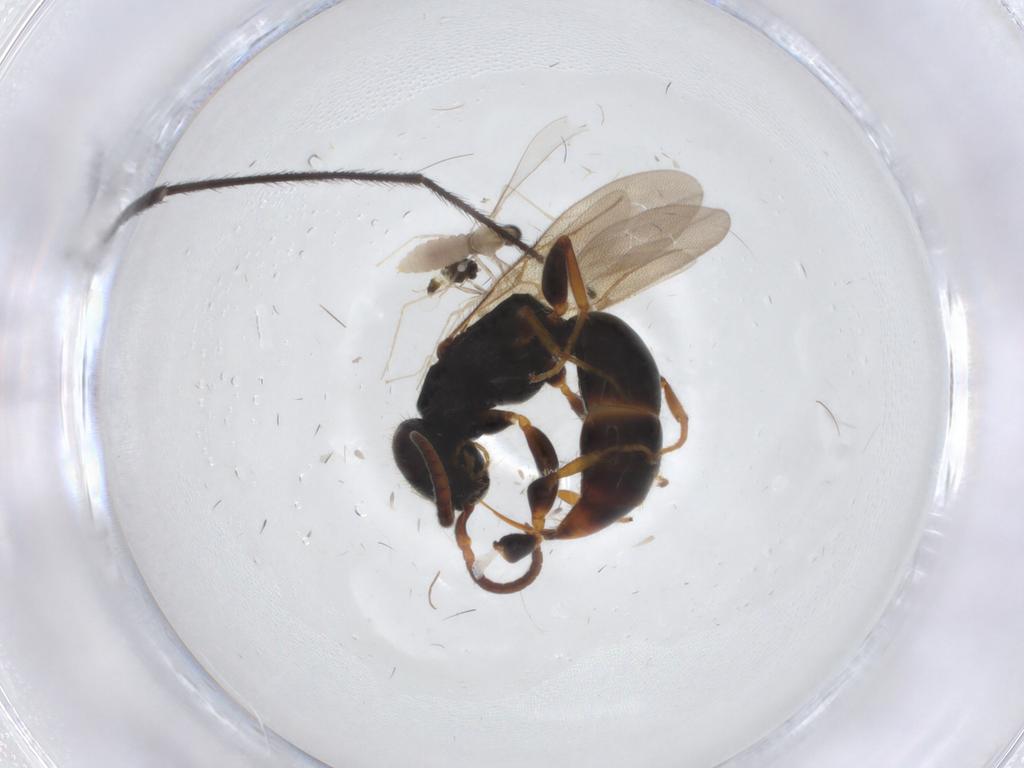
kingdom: Animalia
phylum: Arthropoda
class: Insecta
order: Diptera
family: Cecidomyiidae
